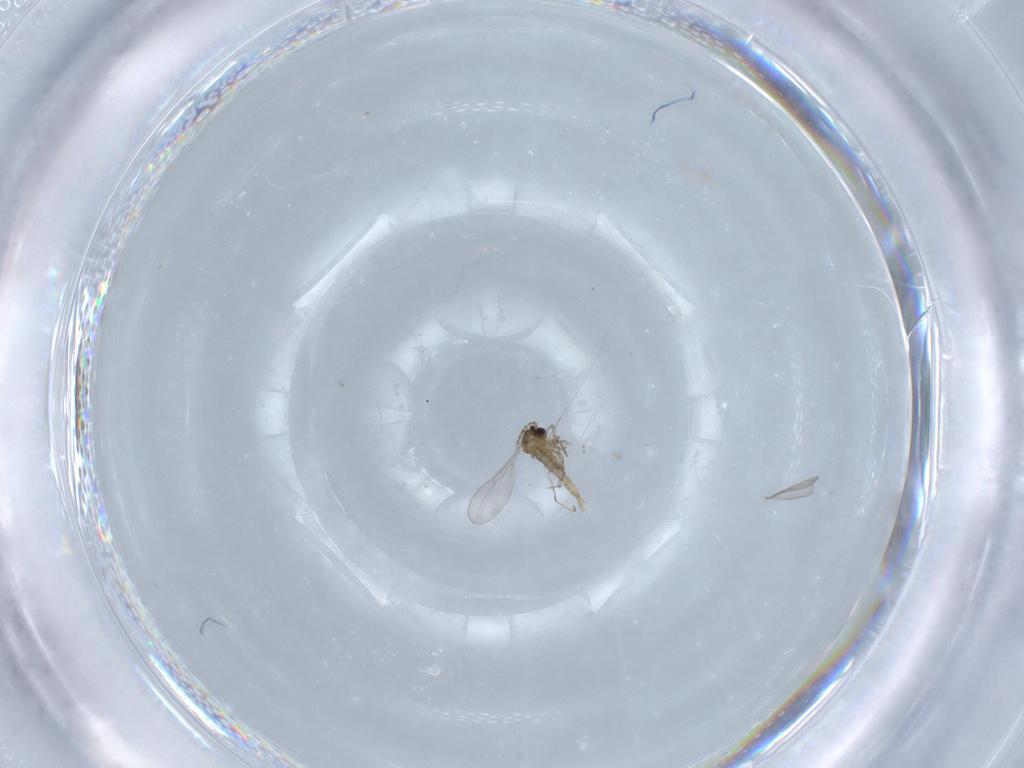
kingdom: Animalia
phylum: Arthropoda
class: Insecta
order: Diptera
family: Cecidomyiidae
